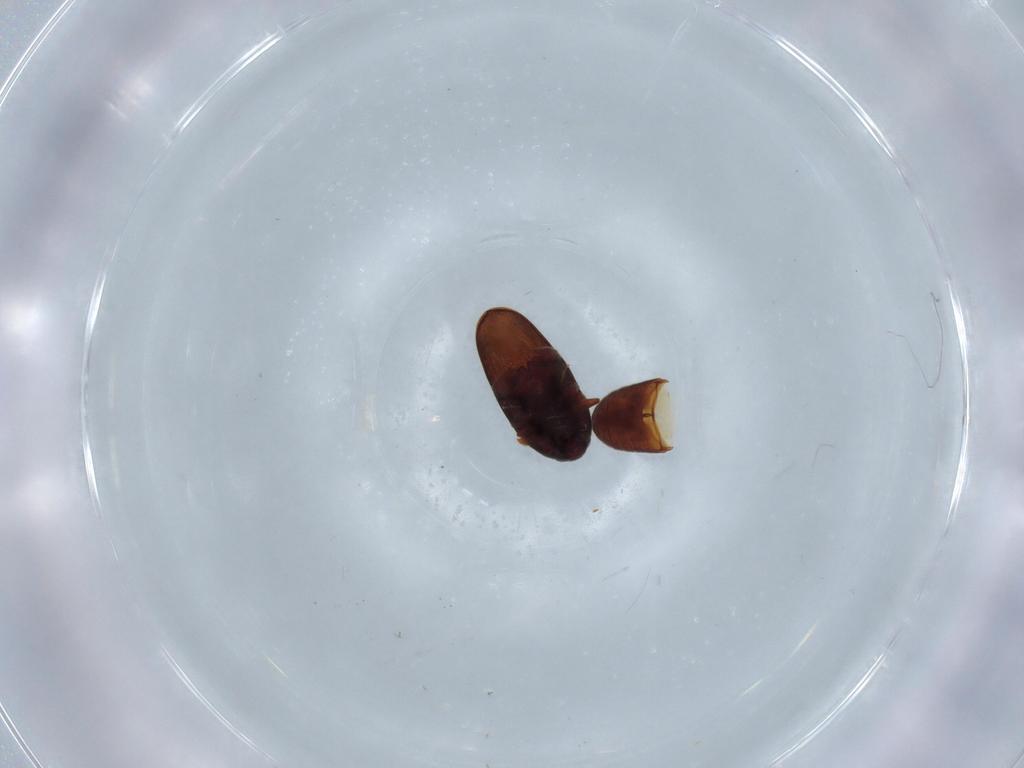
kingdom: Animalia
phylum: Arthropoda
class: Insecta
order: Coleoptera
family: Throscidae
